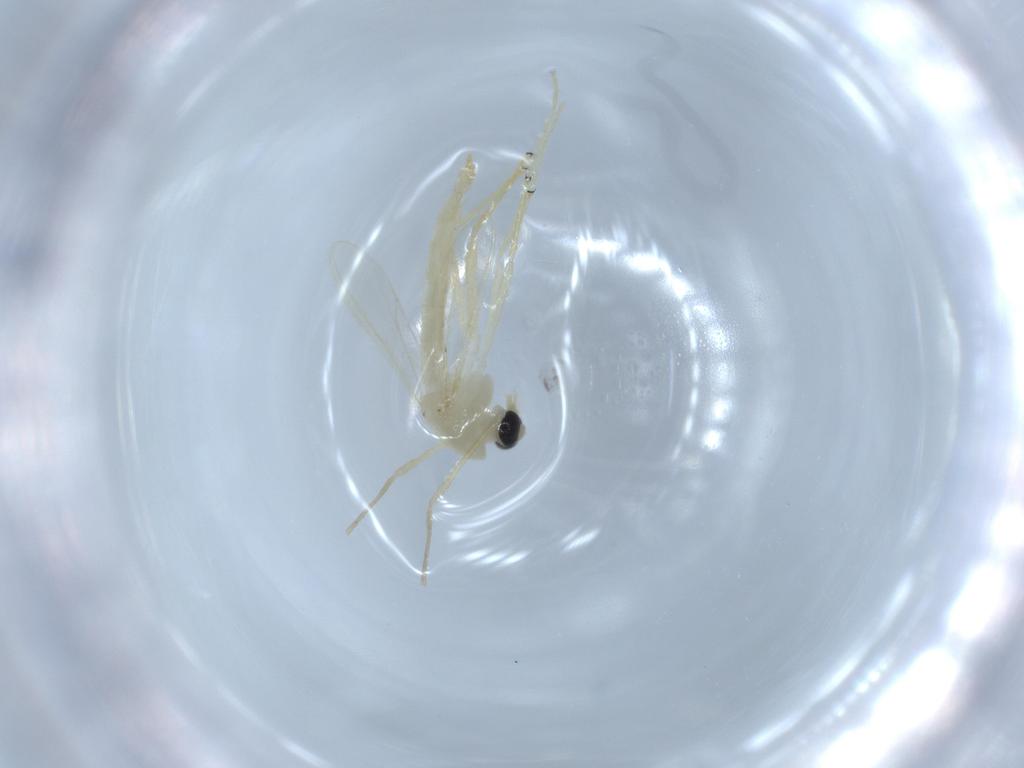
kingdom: Animalia
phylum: Arthropoda
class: Insecta
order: Diptera
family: Chironomidae
